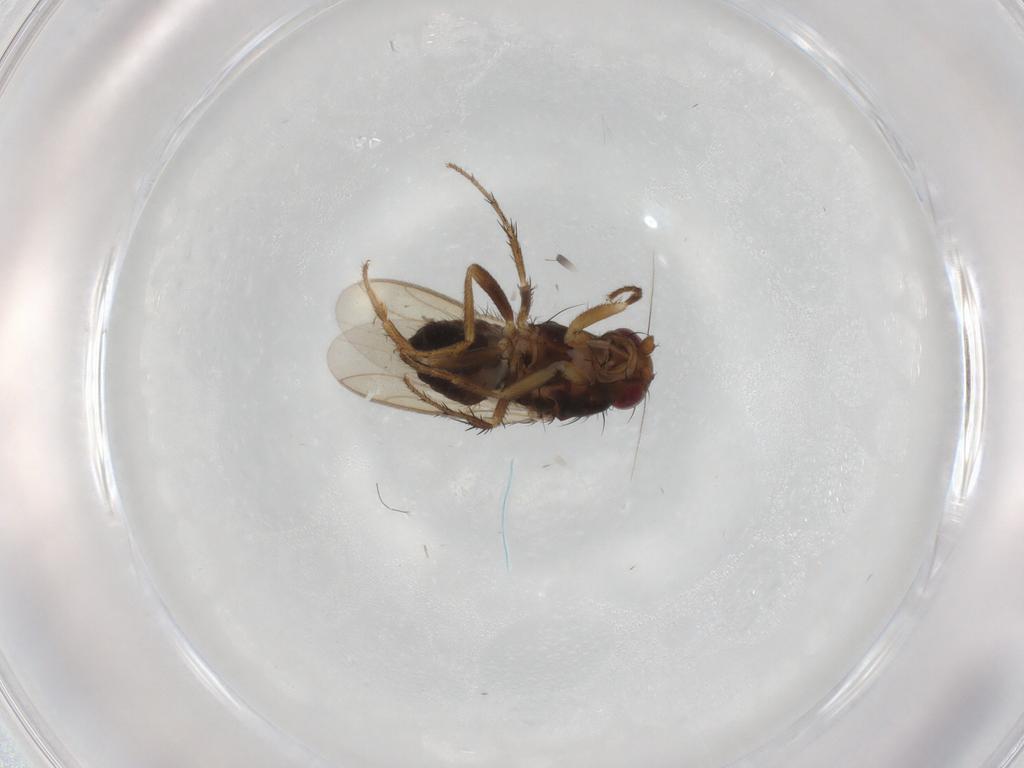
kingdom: Animalia
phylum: Arthropoda
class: Insecta
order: Diptera
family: Sphaeroceridae
